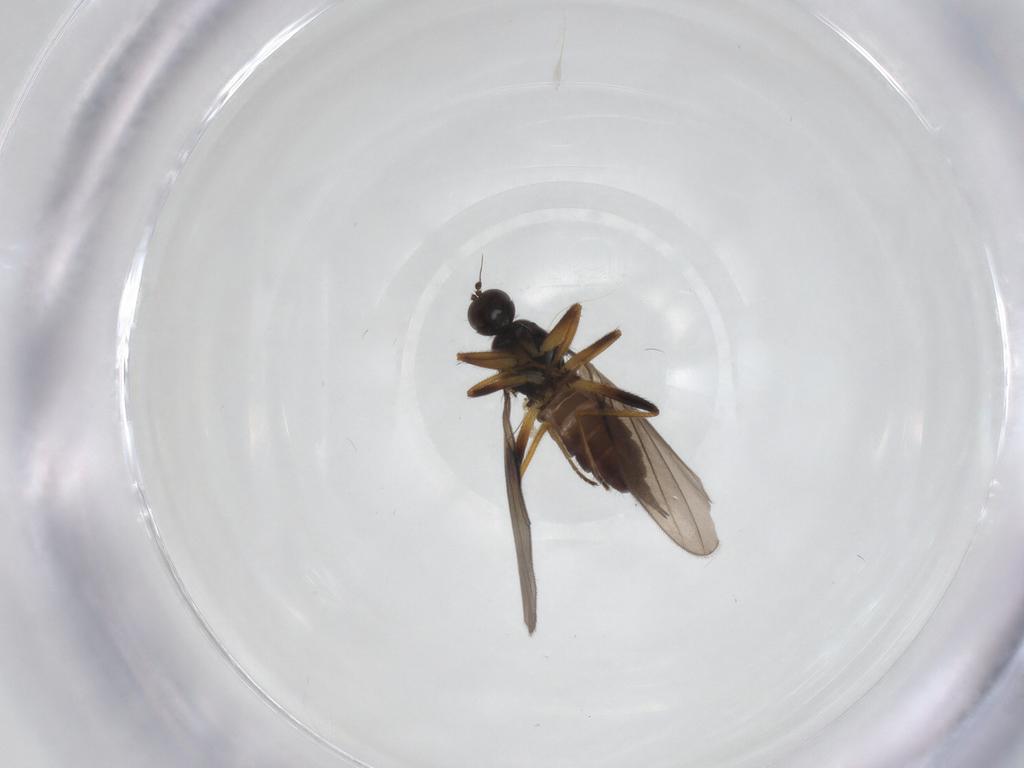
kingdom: Animalia
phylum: Arthropoda
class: Insecta
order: Diptera
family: Hybotidae
